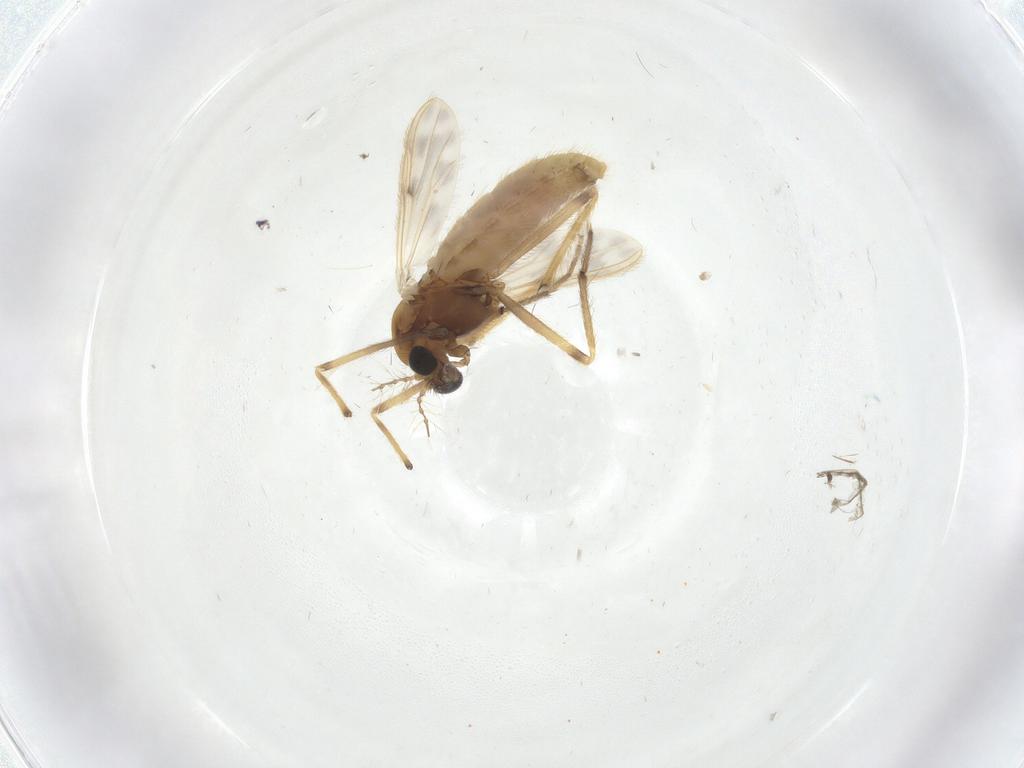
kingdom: Animalia
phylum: Arthropoda
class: Insecta
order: Diptera
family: Chironomidae
